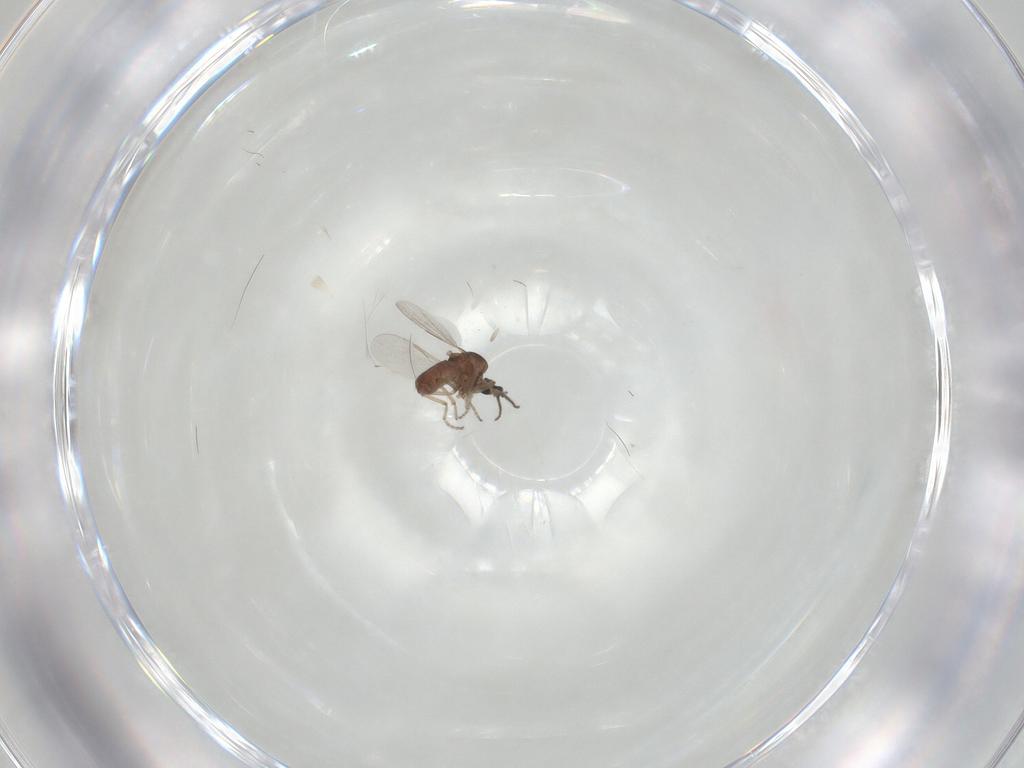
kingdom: Animalia
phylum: Arthropoda
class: Insecta
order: Diptera
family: Ceratopogonidae
